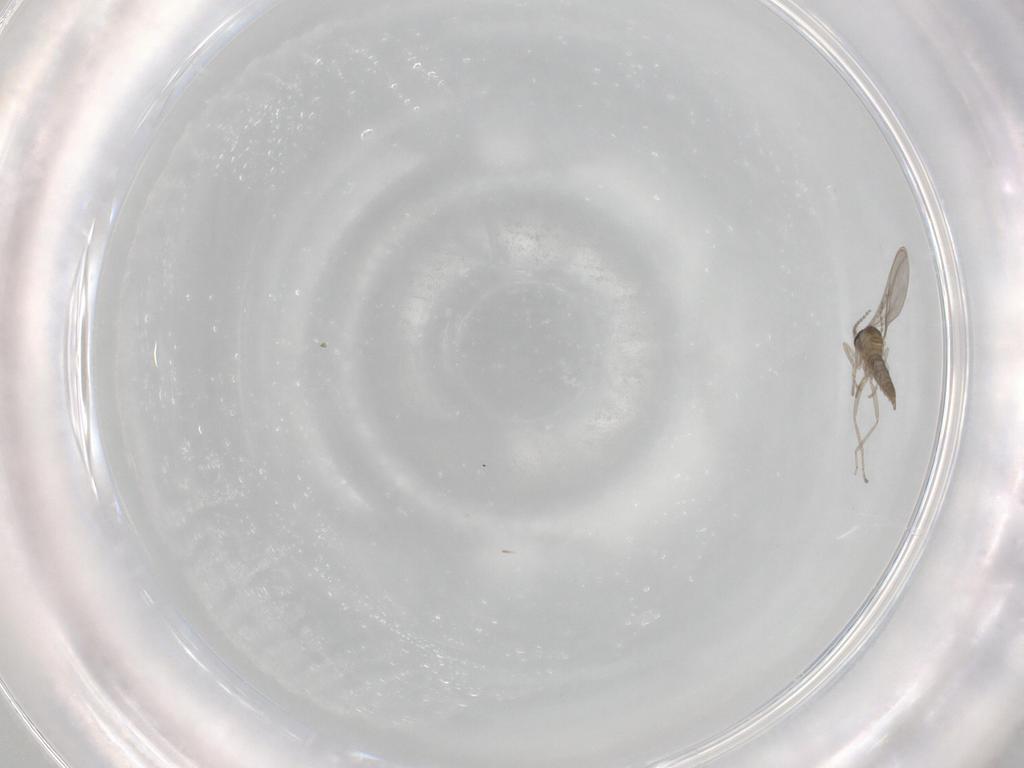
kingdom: Animalia
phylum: Arthropoda
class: Insecta
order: Diptera
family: Cecidomyiidae
